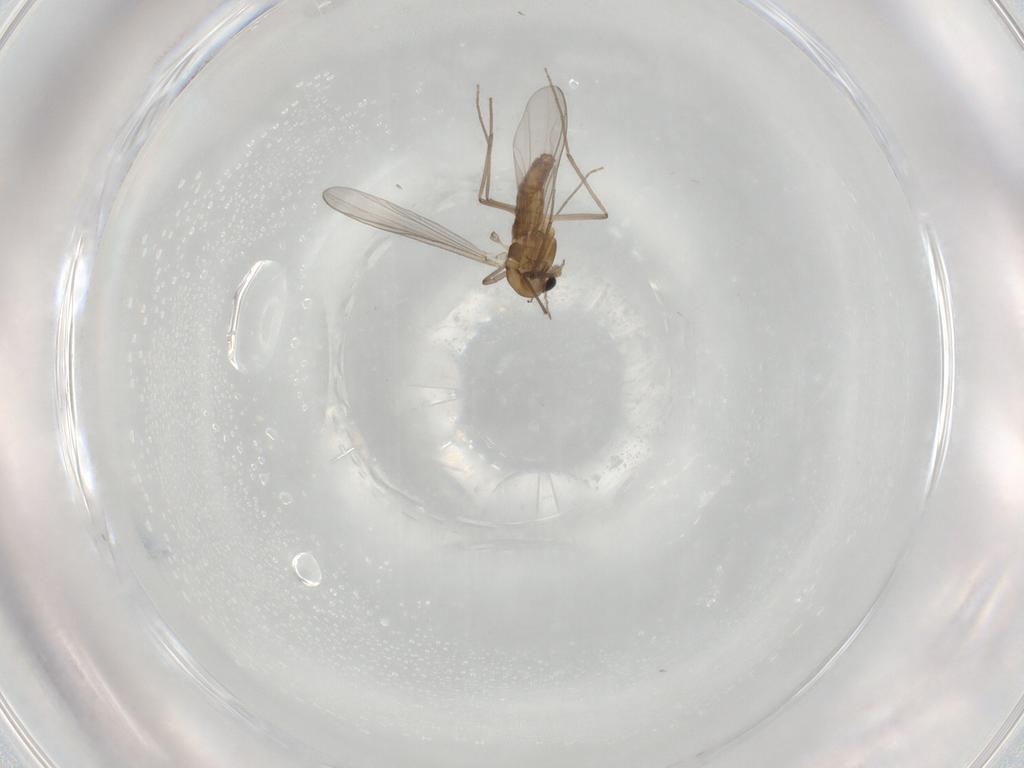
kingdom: Animalia
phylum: Arthropoda
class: Insecta
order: Diptera
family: Chironomidae
